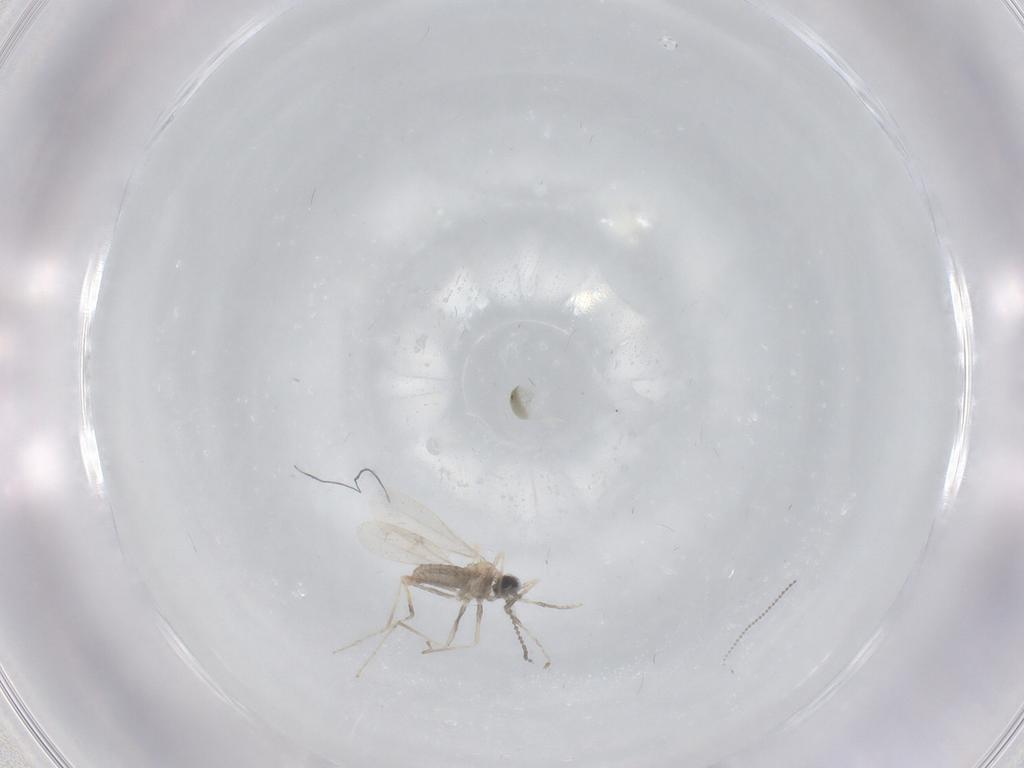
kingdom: Animalia
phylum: Arthropoda
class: Insecta
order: Diptera
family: Cecidomyiidae
